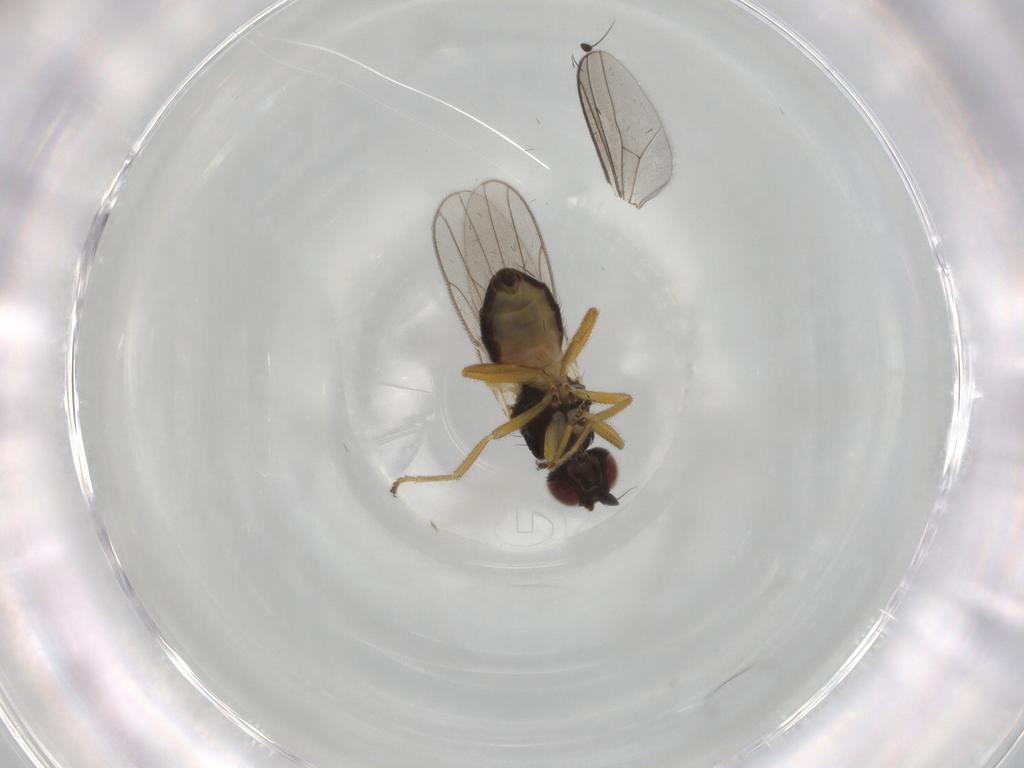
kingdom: Animalia
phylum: Arthropoda
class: Insecta
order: Diptera
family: Chloropidae
